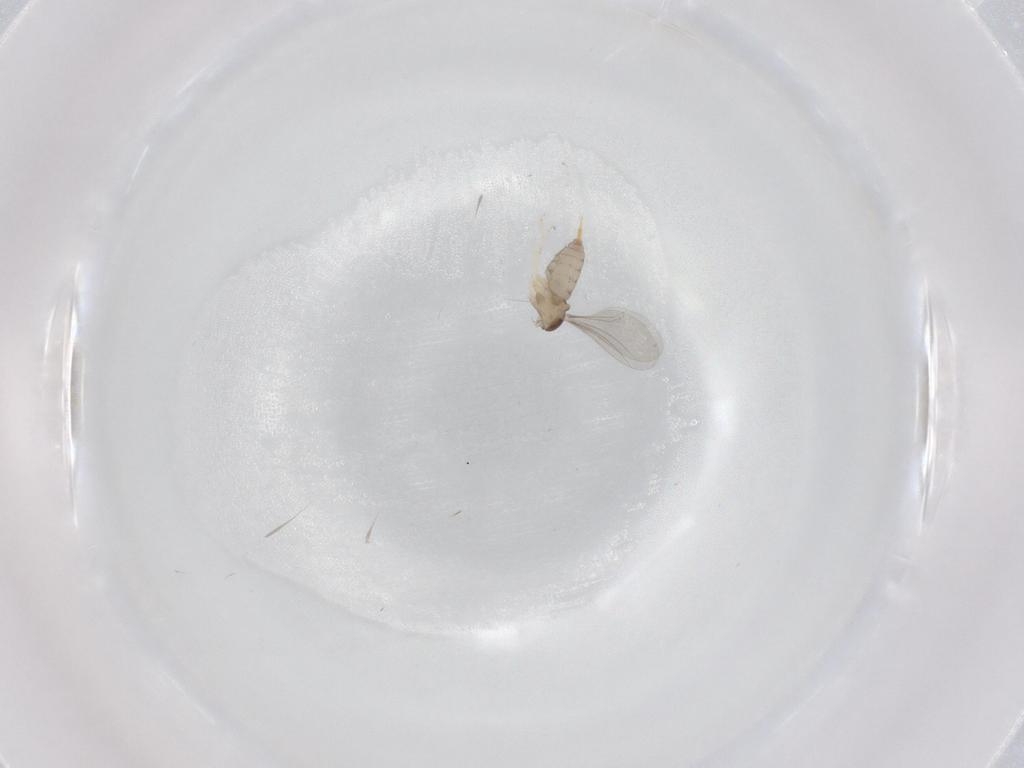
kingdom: Animalia
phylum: Arthropoda
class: Insecta
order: Diptera
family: Cecidomyiidae
